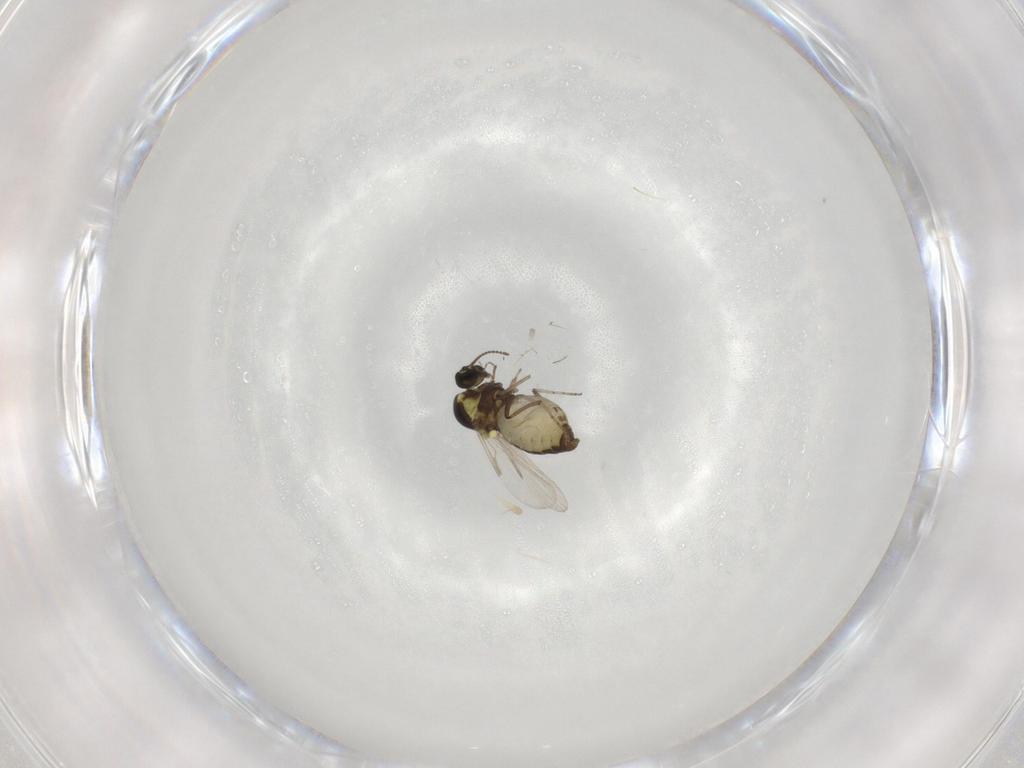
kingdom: Animalia
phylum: Arthropoda
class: Insecta
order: Diptera
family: Ceratopogonidae
